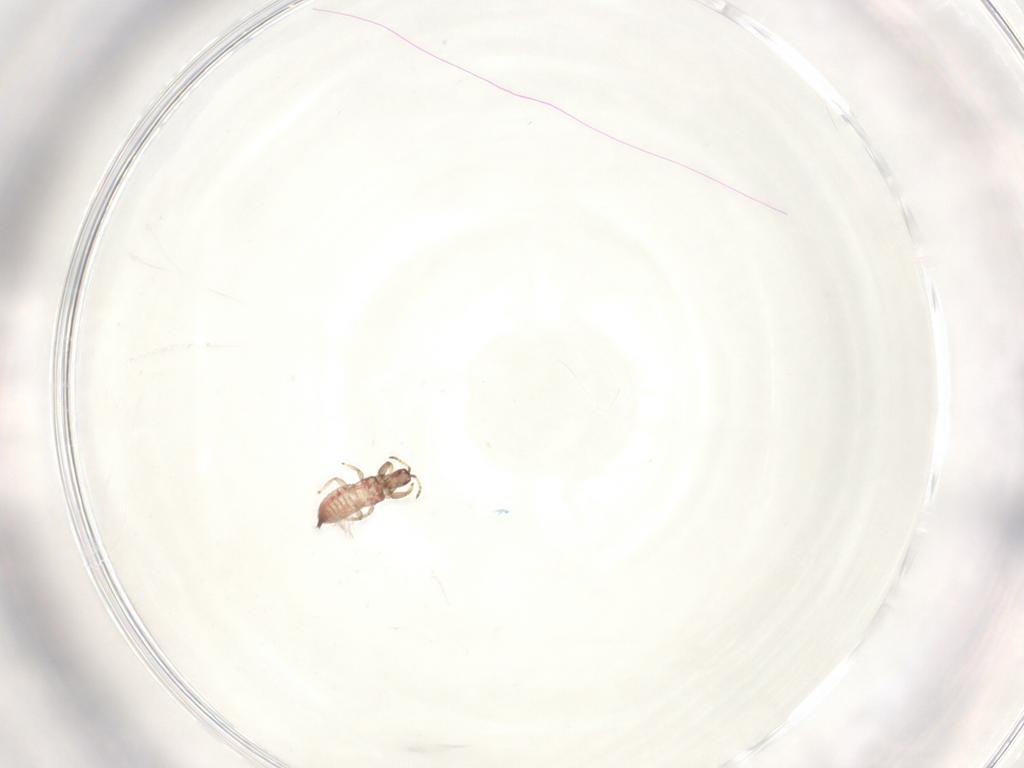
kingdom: Animalia
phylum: Arthropoda
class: Insecta
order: Thysanoptera
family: Phlaeothripidae
